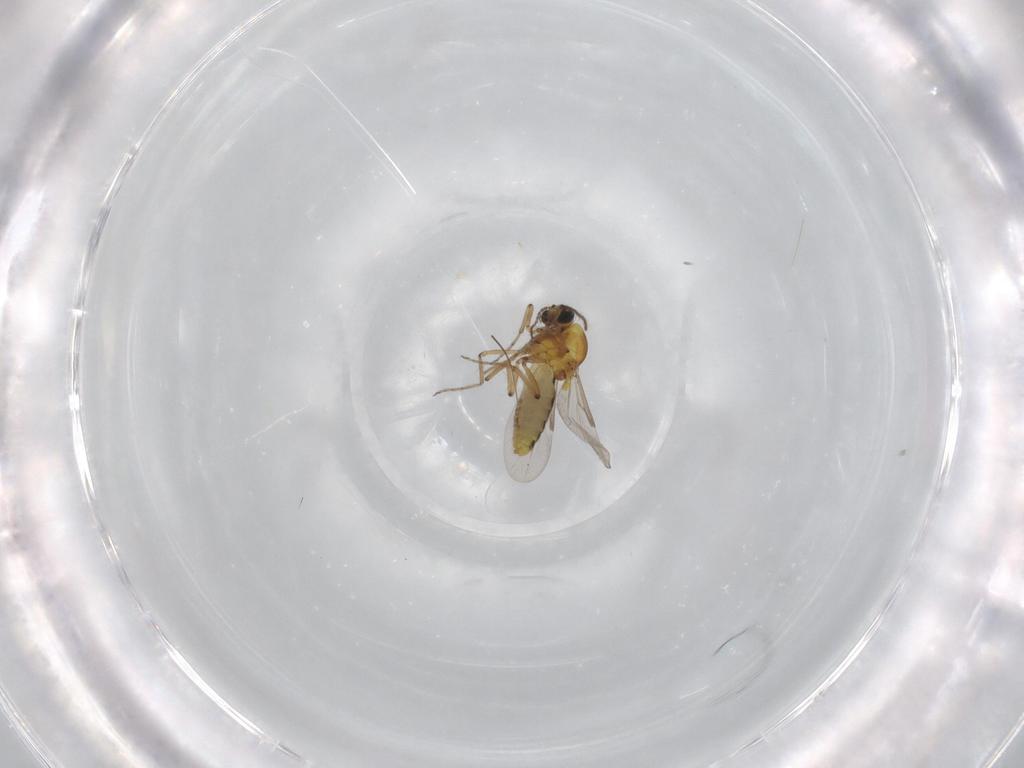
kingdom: Animalia
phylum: Arthropoda
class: Insecta
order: Diptera
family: Ceratopogonidae
